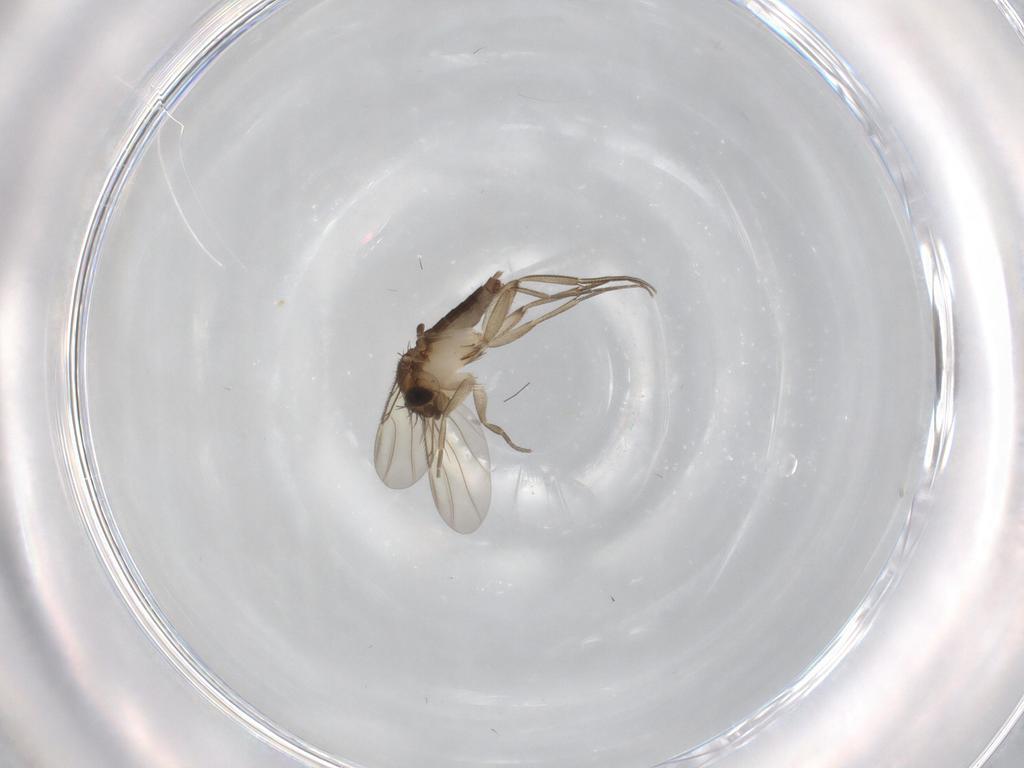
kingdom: Animalia
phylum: Arthropoda
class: Insecta
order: Diptera
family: Phoridae
